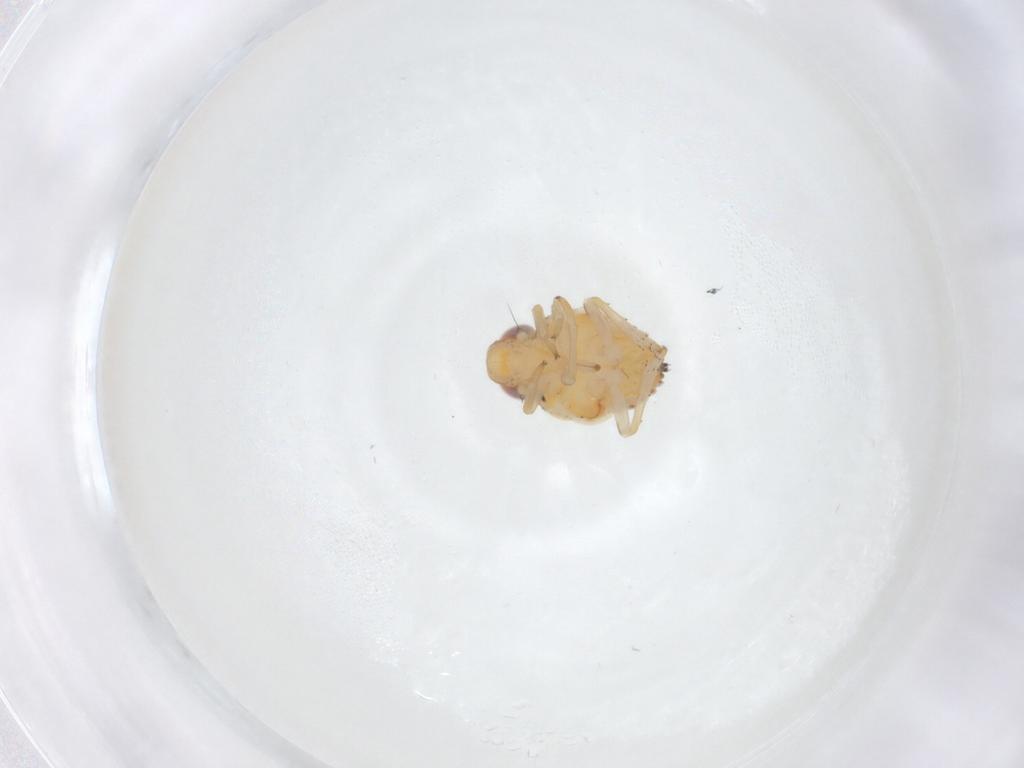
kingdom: Animalia
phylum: Arthropoda
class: Insecta
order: Hemiptera
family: Issidae
